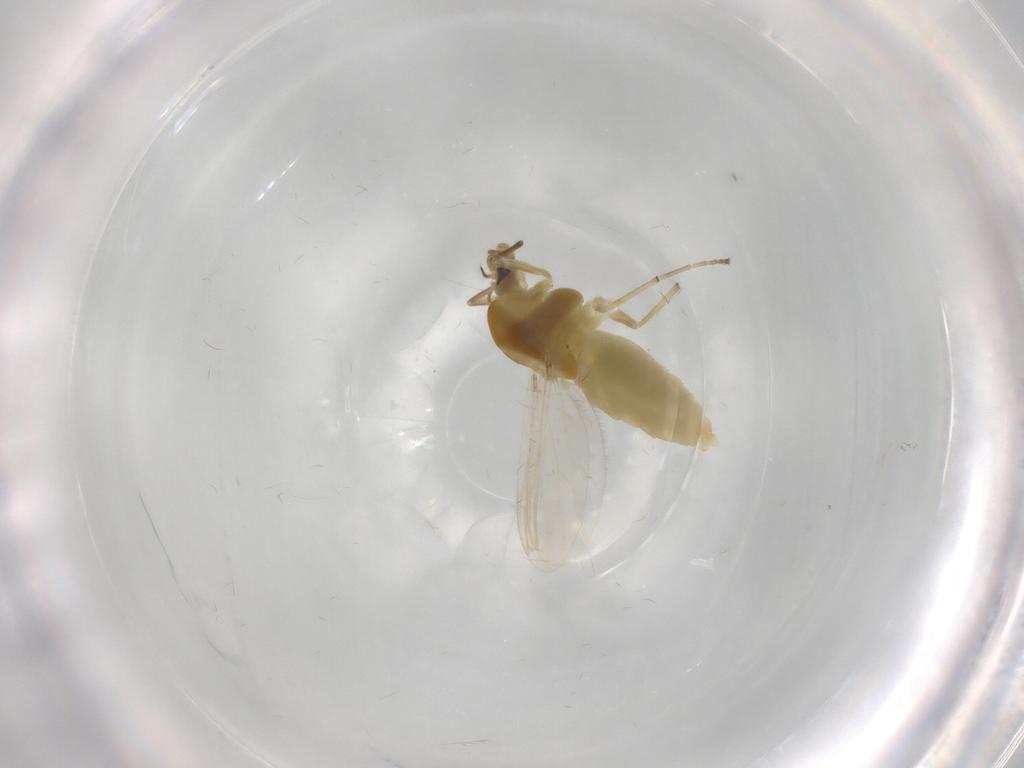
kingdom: Animalia
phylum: Arthropoda
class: Insecta
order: Diptera
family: Chironomidae
